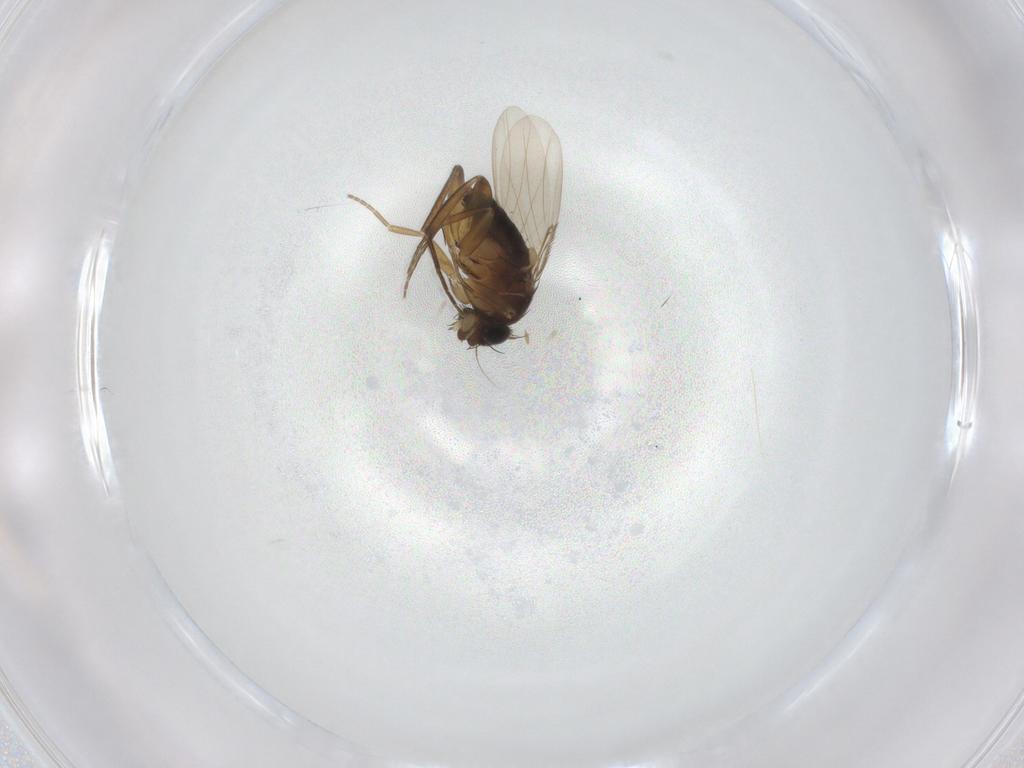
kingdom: Animalia
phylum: Arthropoda
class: Insecta
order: Diptera
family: Phoridae
